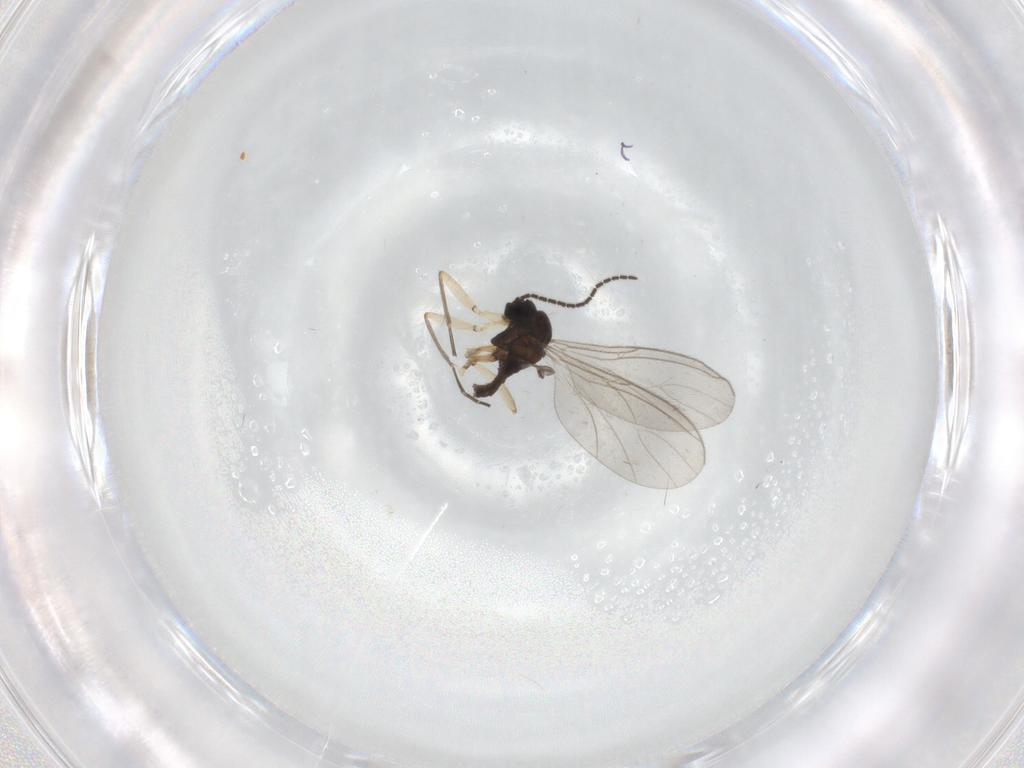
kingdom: Animalia
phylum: Arthropoda
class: Insecta
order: Diptera
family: Sciaridae
